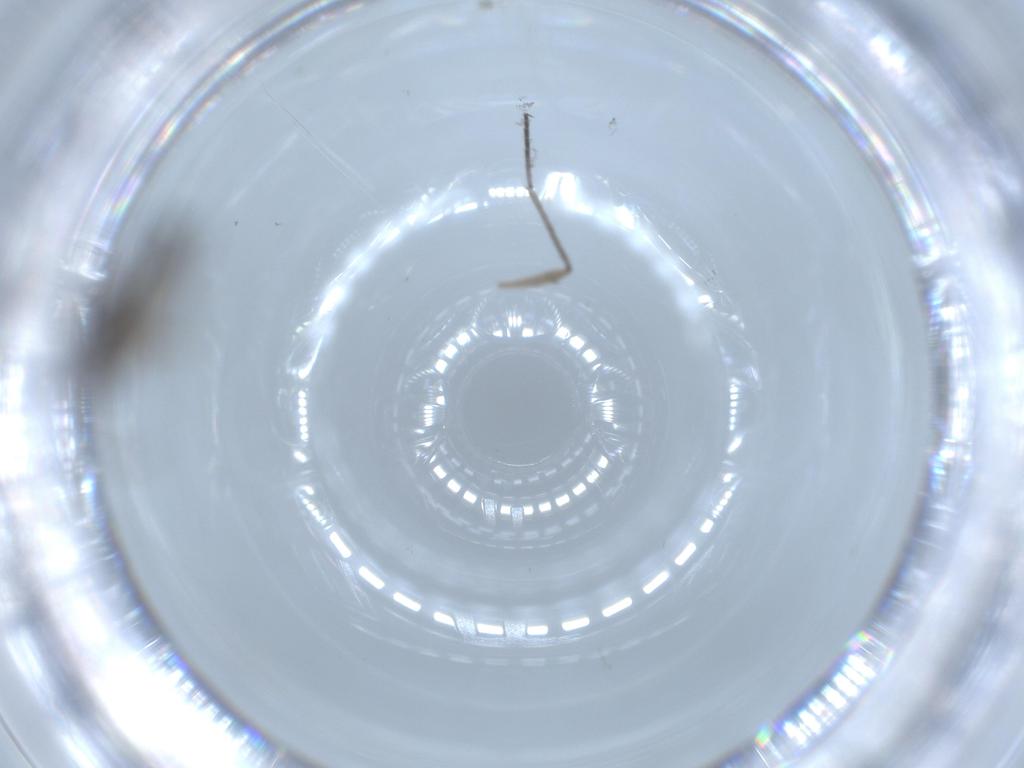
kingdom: Animalia
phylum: Arthropoda
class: Insecta
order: Diptera
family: Sciaridae
